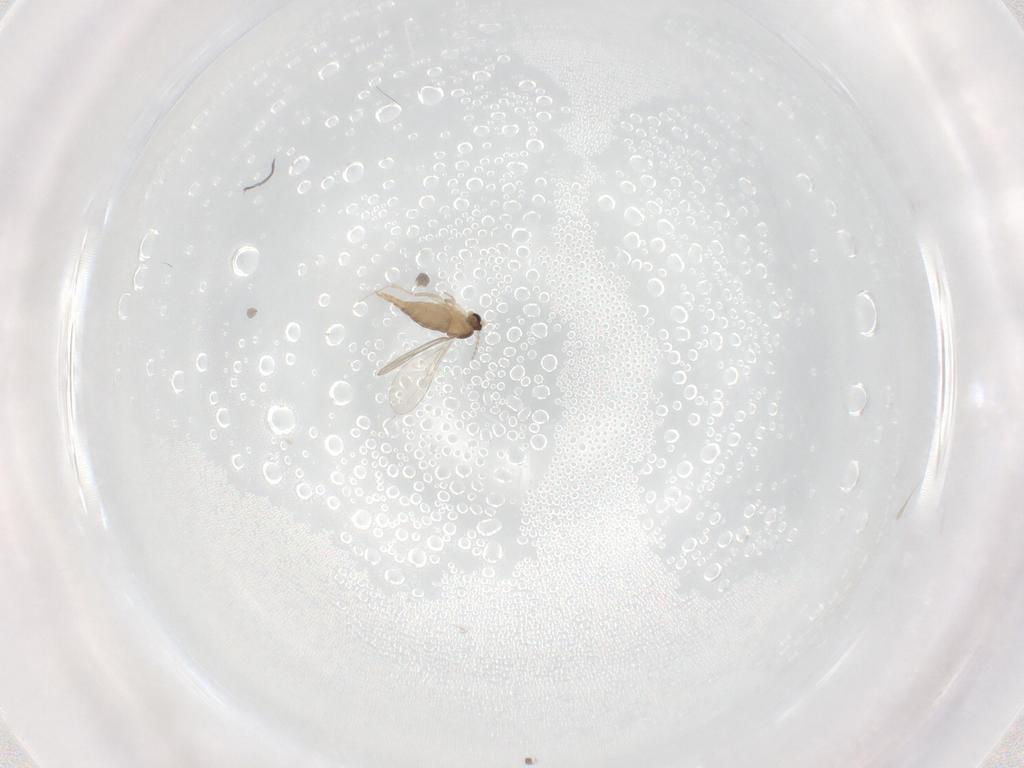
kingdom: Animalia
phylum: Arthropoda
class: Insecta
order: Diptera
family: Cecidomyiidae
